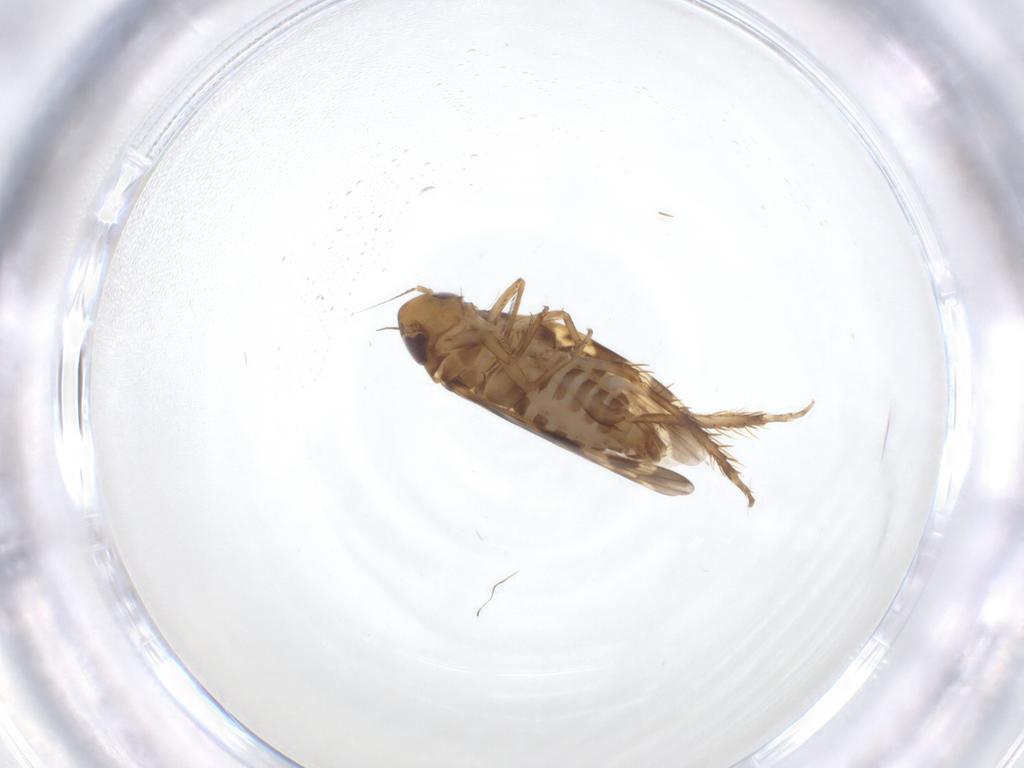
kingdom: Animalia
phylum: Arthropoda
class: Insecta
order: Hemiptera
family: Cicadellidae
